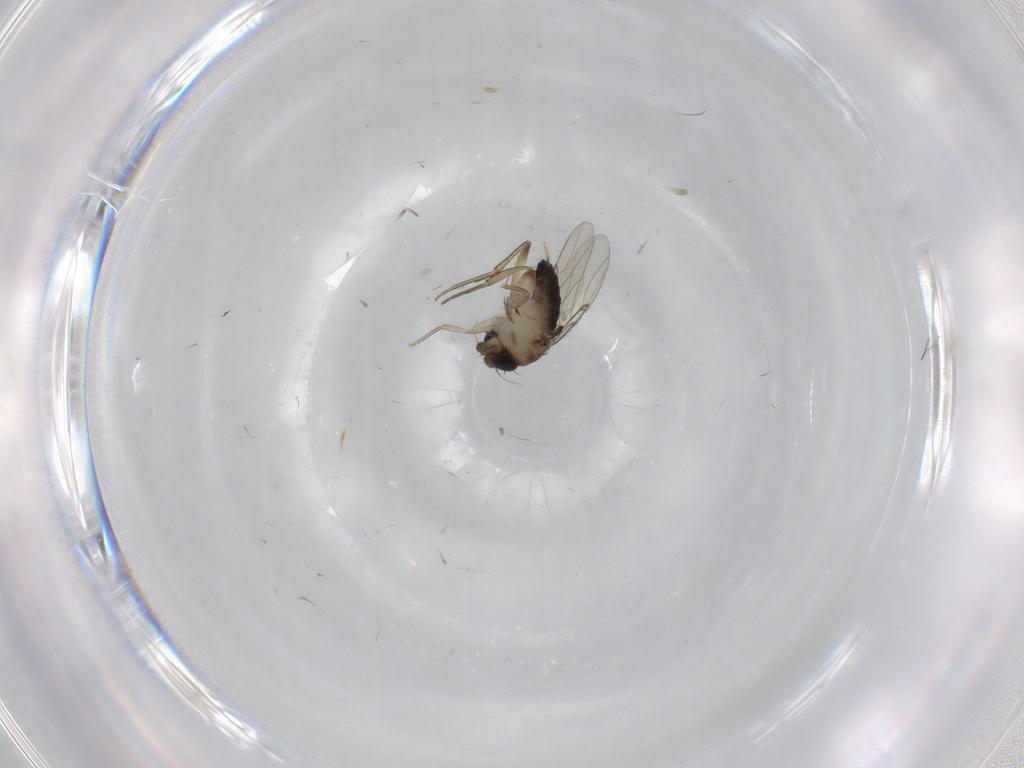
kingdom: Animalia
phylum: Arthropoda
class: Insecta
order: Diptera
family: Phoridae
